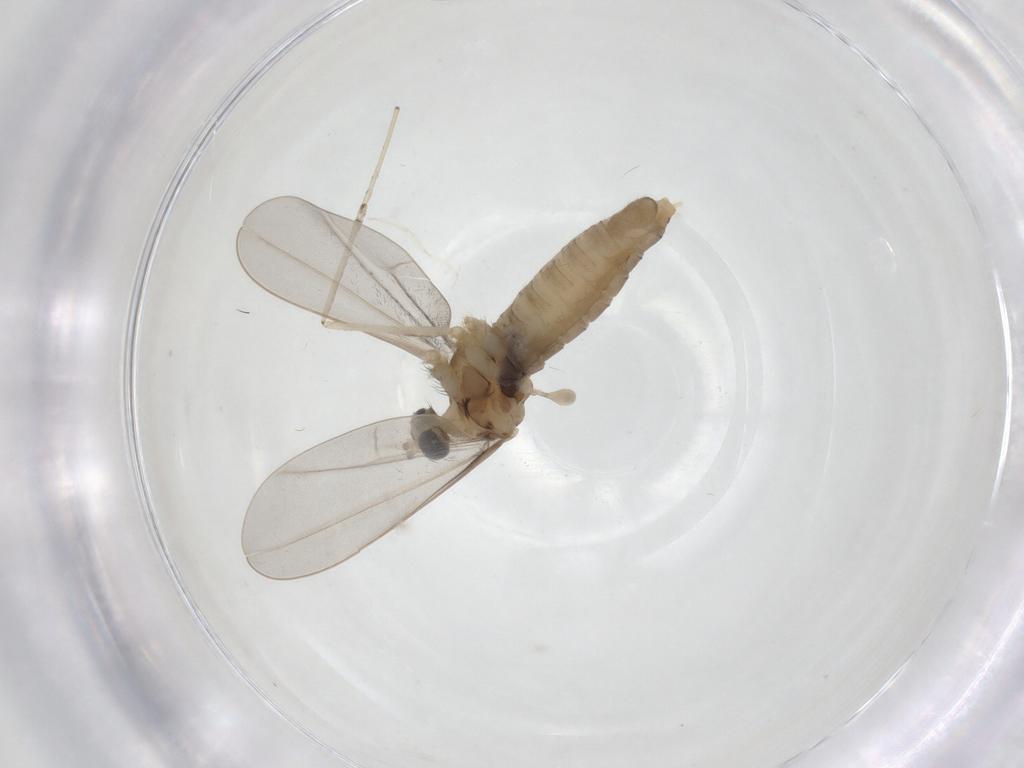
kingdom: Animalia
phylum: Arthropoda
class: Insecta
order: Diptera
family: Cecidomyiidae
